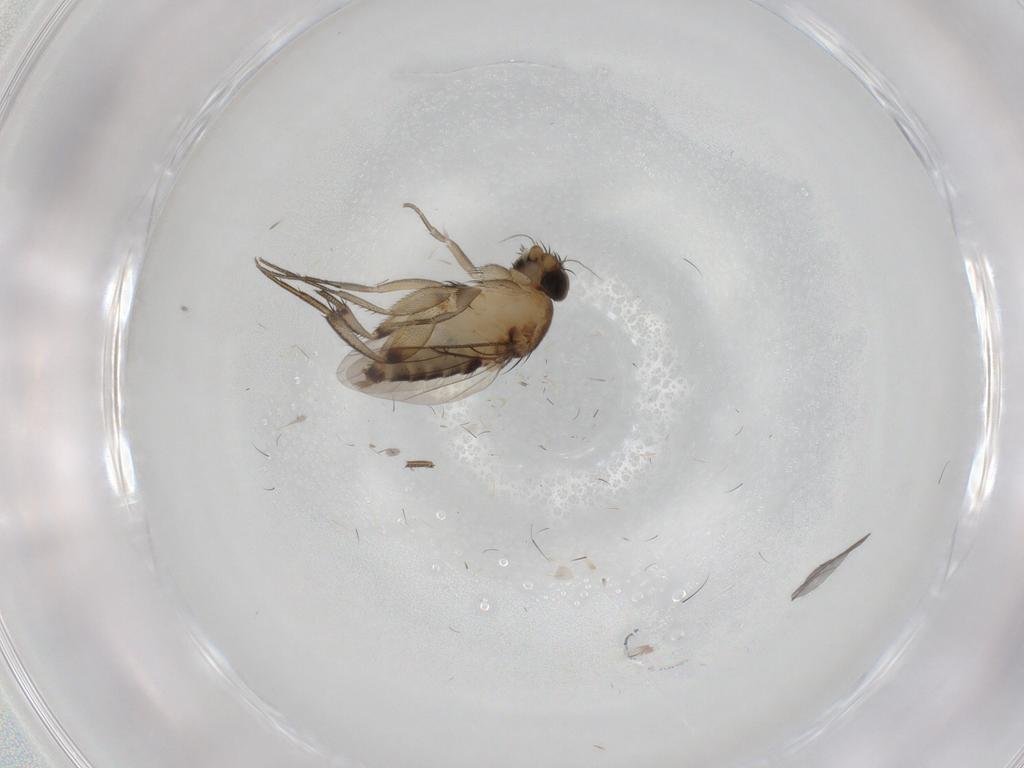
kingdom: Animalia
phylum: Arthropoda
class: Insecta
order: Diptera
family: Phoridae
